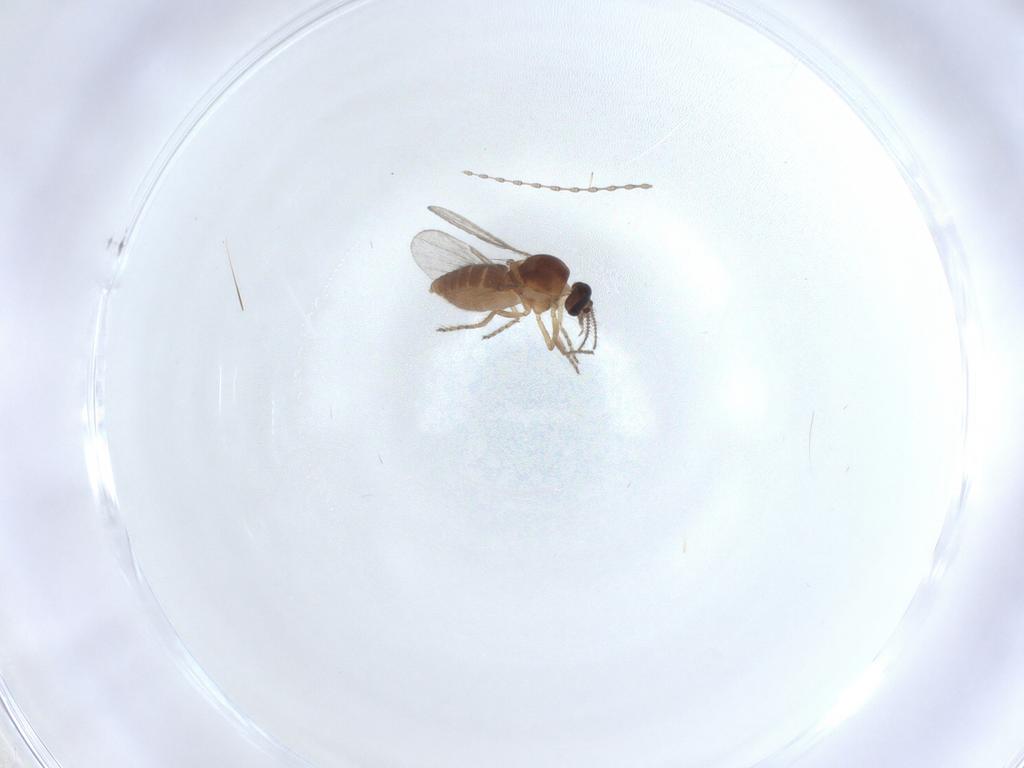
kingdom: Animalia
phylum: Arthropoda
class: Insecta
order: Diptera
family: Cecidomyiidae
